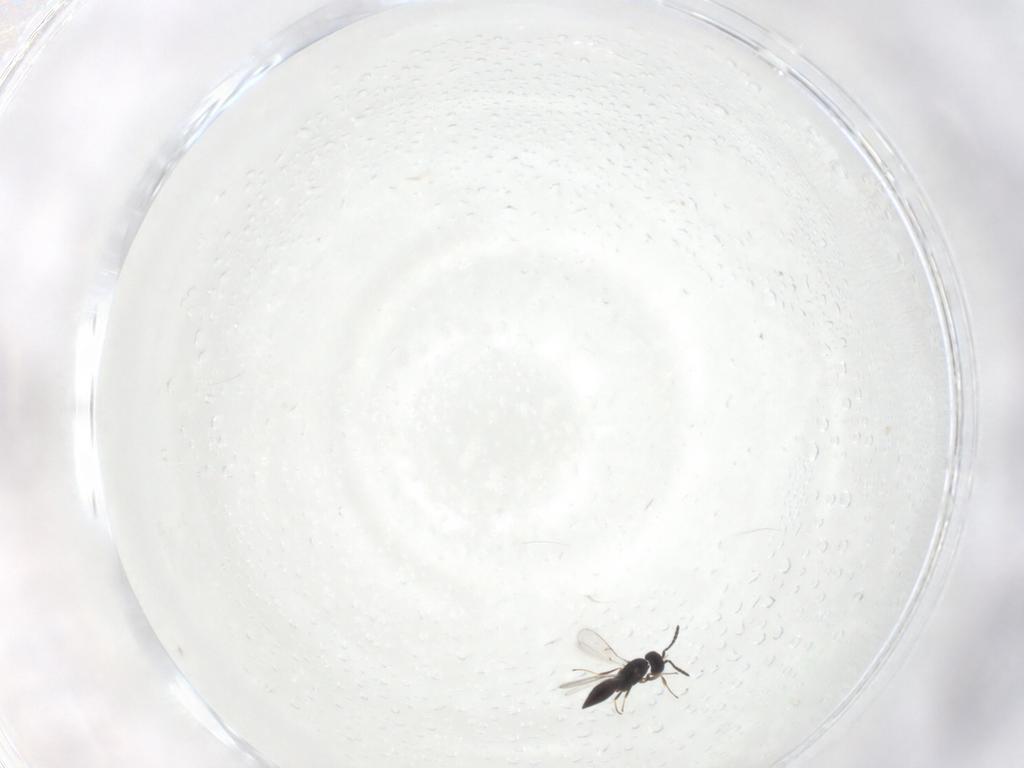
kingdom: Animalia
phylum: Arthropoda
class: Insecta
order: Hymenoptera
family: Scelionidae
